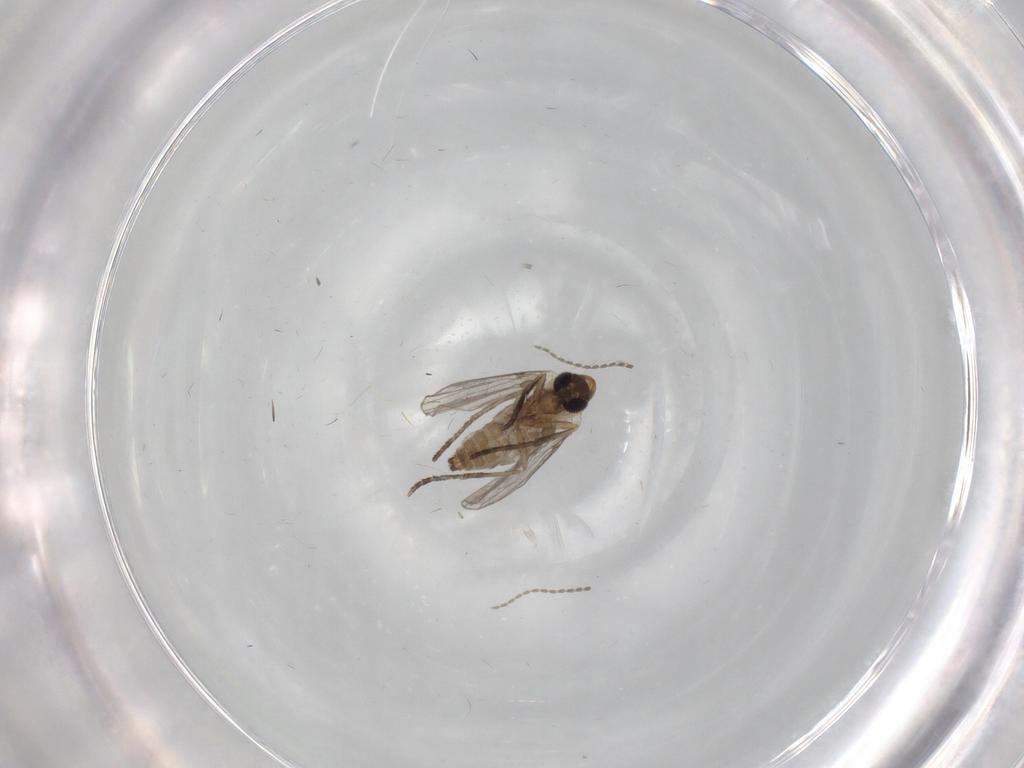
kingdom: Animalia
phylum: Arthropoda
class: Insecta
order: Diptera
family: Psychodidae
